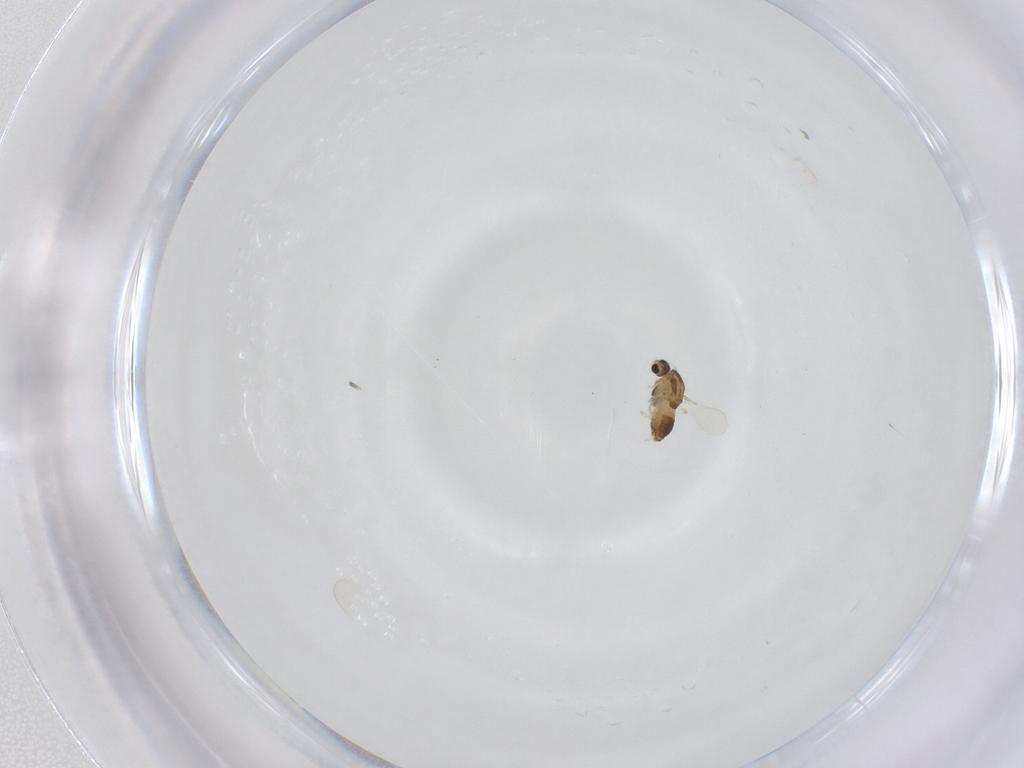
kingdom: Animalia
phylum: Arthropoda
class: Insecta
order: Diptera
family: Chironomidae
